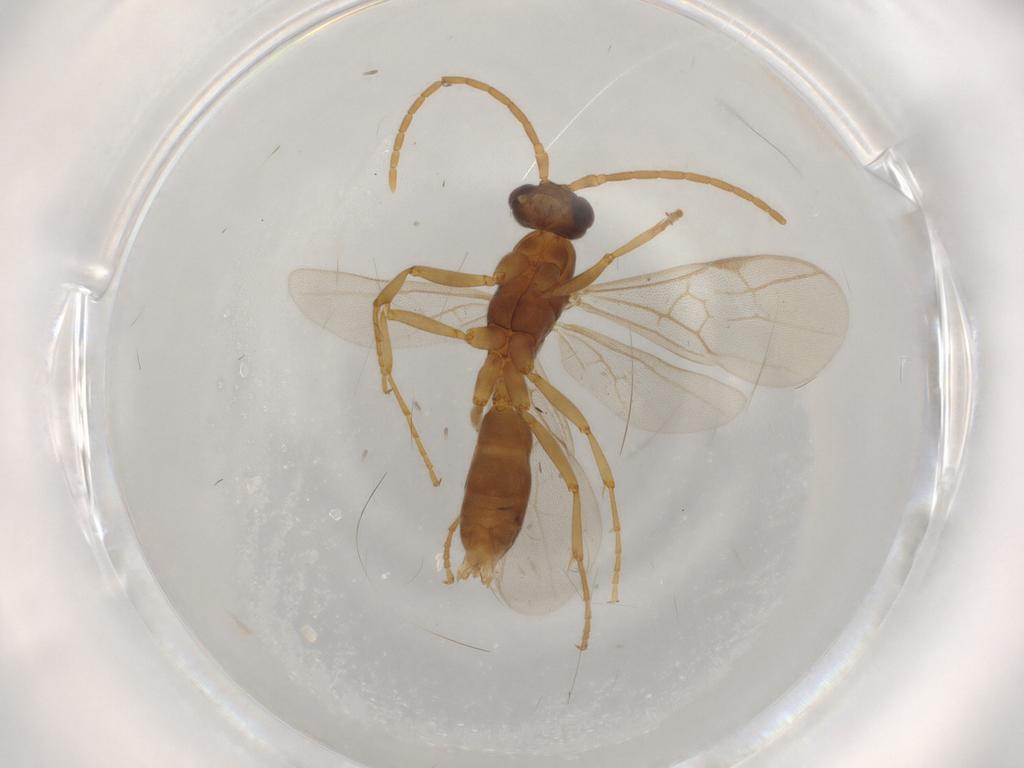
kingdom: Animalia
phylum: Arthropoda
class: Insecta
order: Hymenoptera
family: Formicidae
